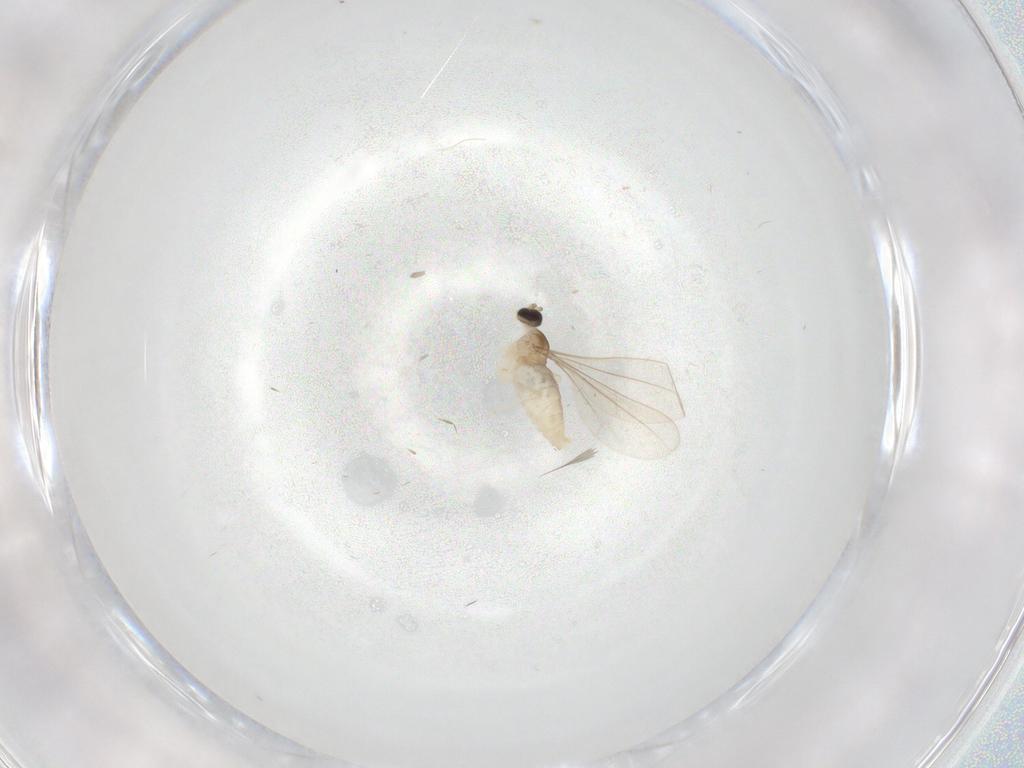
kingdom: Animalia
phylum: Arthropoda
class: Insecta
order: Diptera
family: Cecidomyiidae
